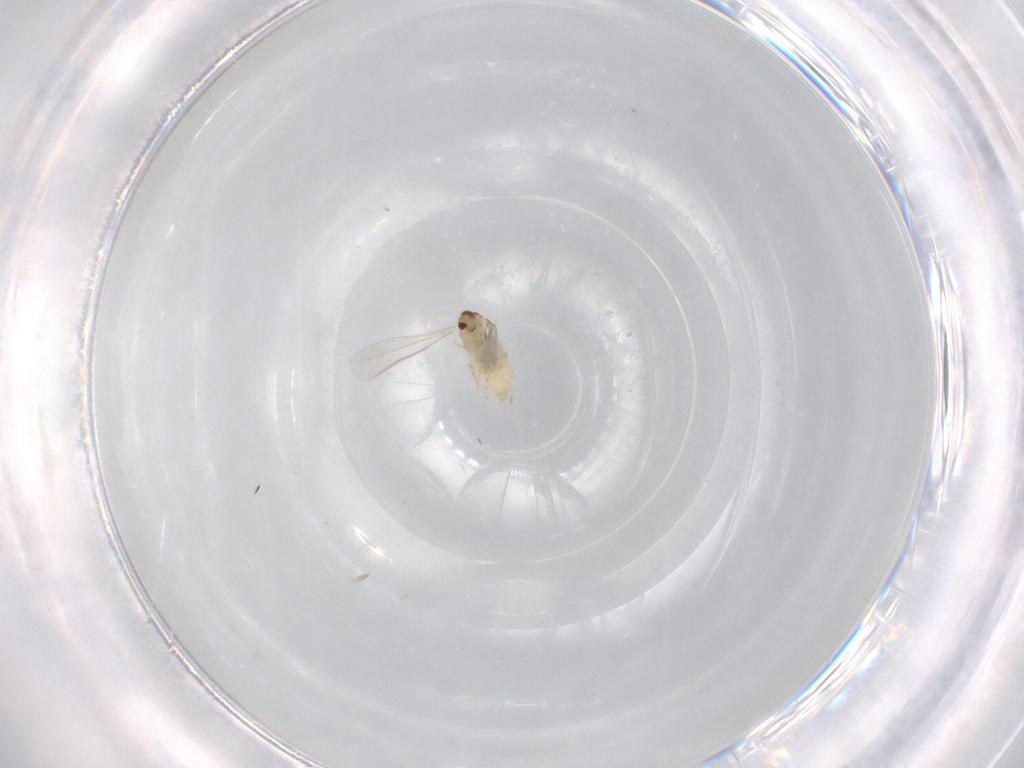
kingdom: Animalia
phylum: Arthropoda
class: Insecta
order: Diptera
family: Cecidomyiidae
